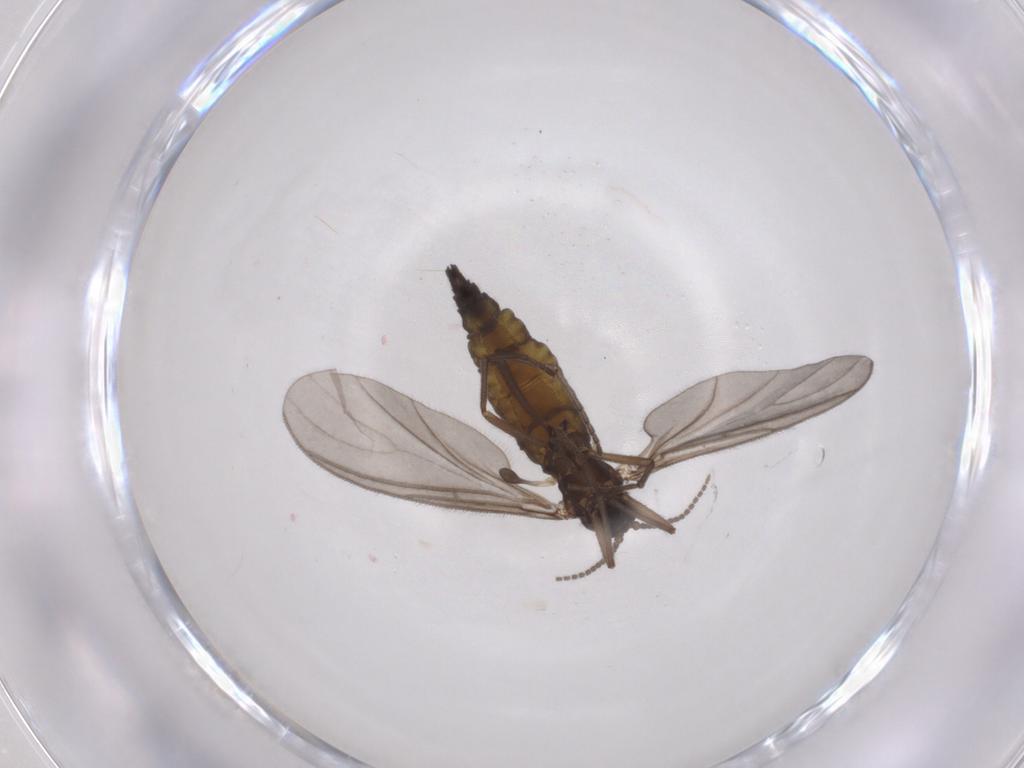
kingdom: Animalia
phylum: Arthropoda
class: Insecta
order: Diptera
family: Sciaridae
